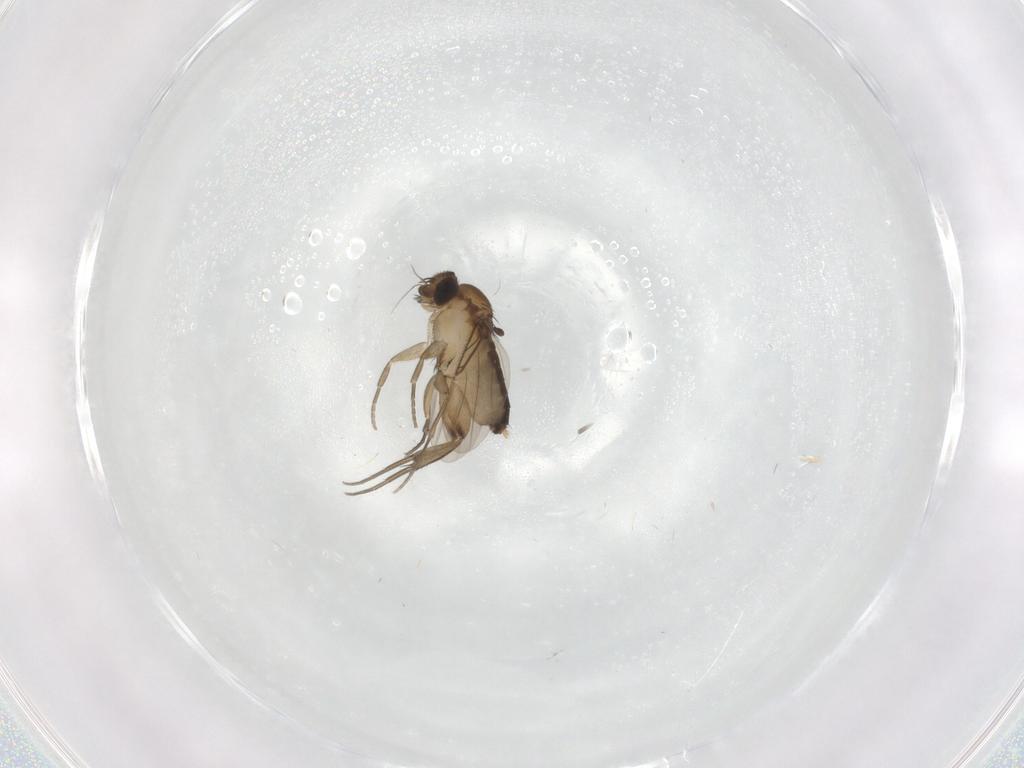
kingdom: Animalia
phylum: Arthropoda
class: Insecta
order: Diptera
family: Phoridae
